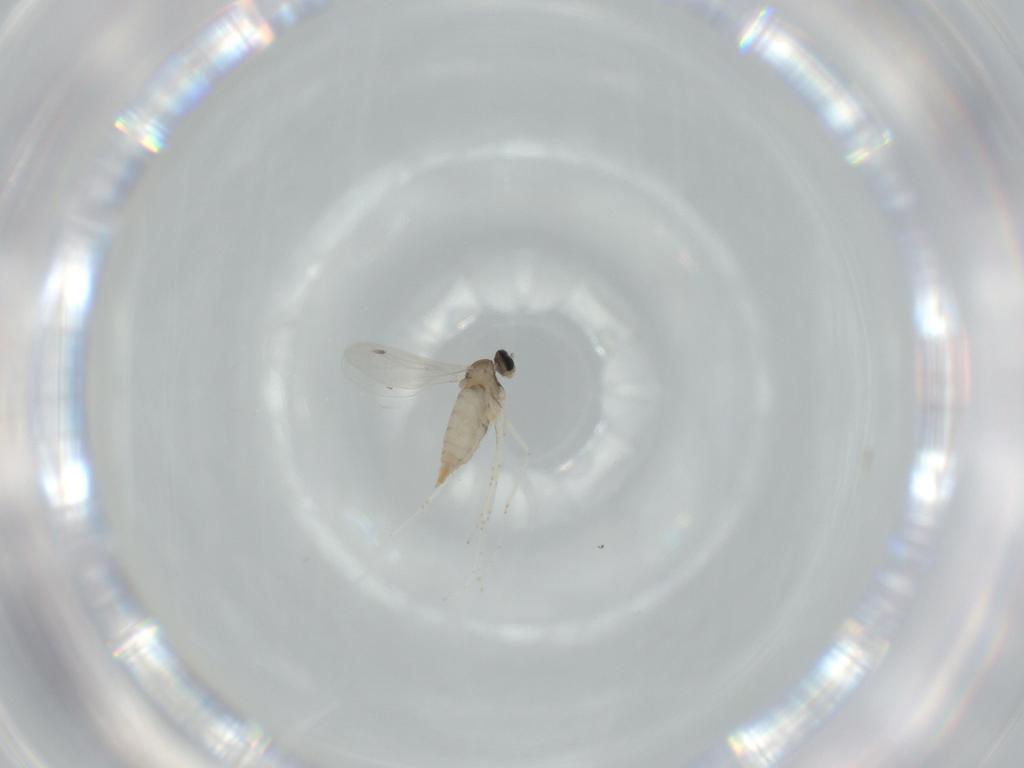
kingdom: Animalia
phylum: Arthropoda
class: Insecta
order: Diptera
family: Cecidomyiidae
